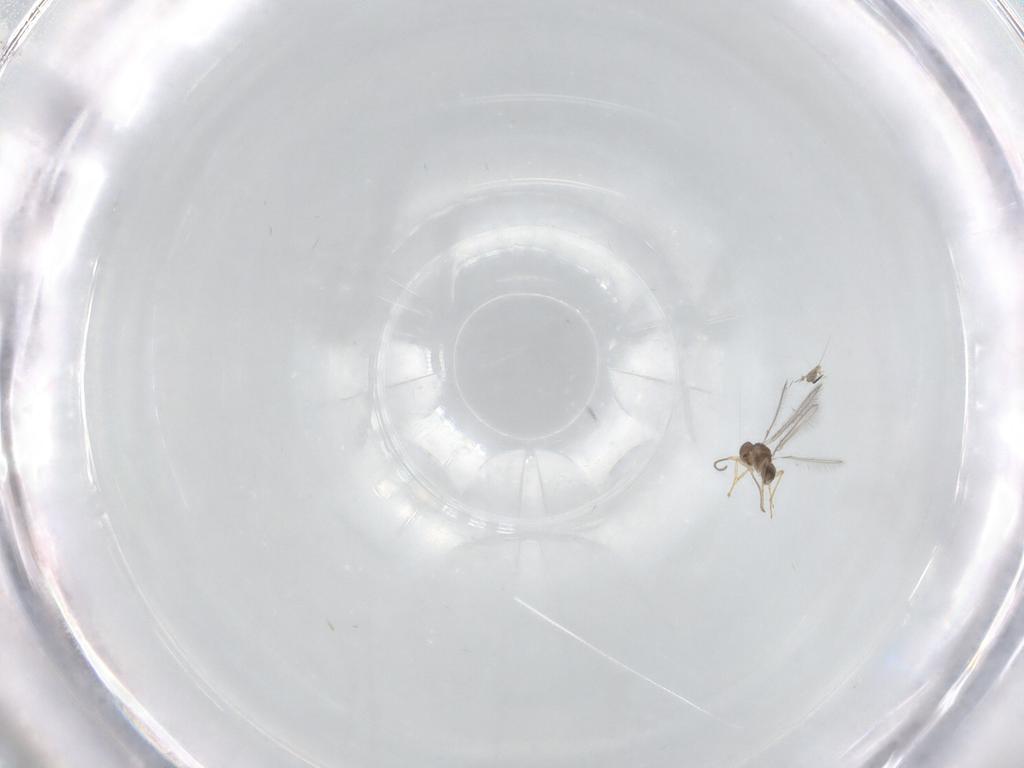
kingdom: Animalia
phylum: Arthropoda
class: Insecta
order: Hymenoptera
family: Mymaridae
